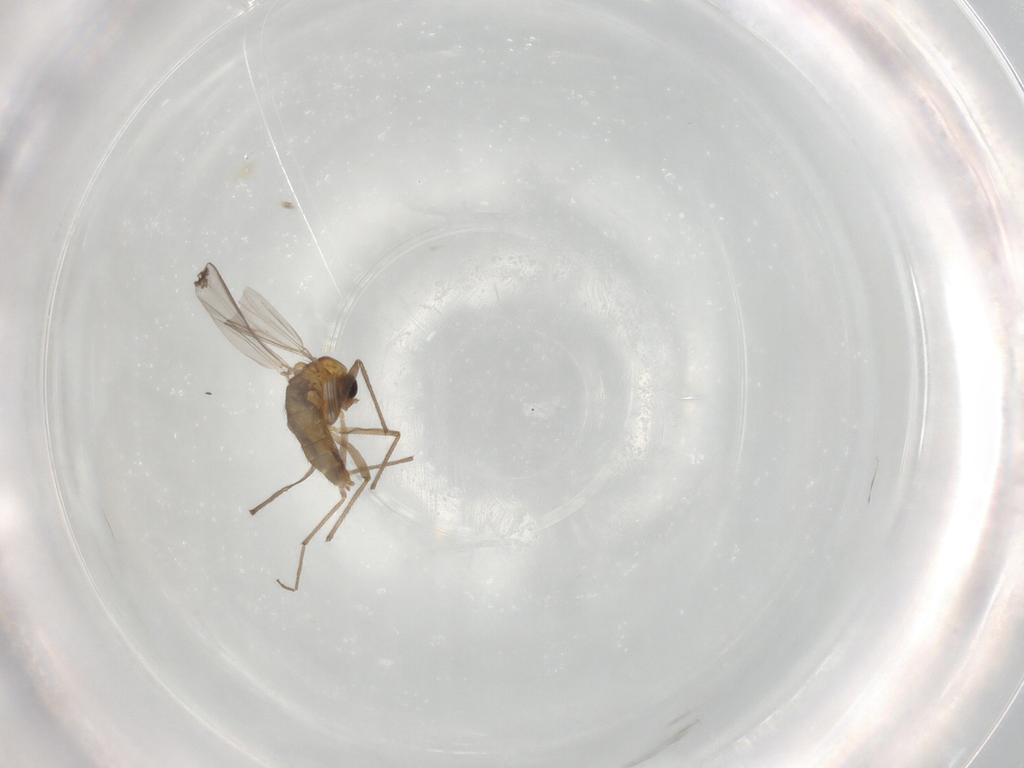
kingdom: Animalia
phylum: Arthropoda
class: Insecta
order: Diptera
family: Chironomidae
